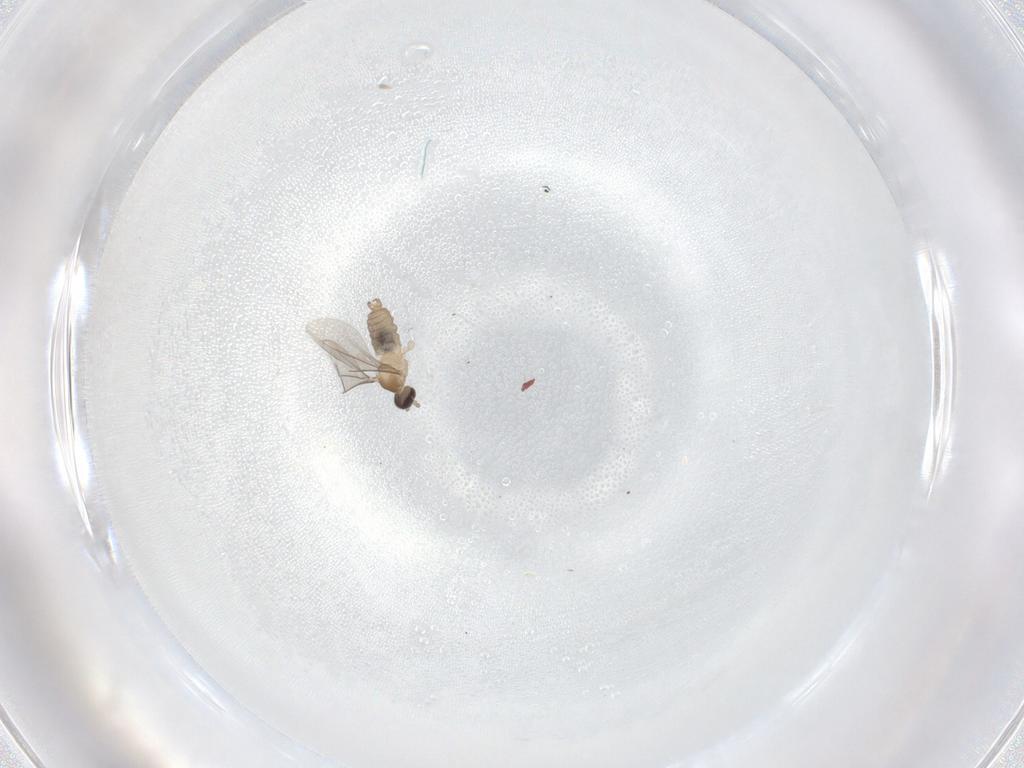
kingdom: Animalia
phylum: Arthropoda
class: Insecta
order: Diptera
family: Cecidomyiidae
